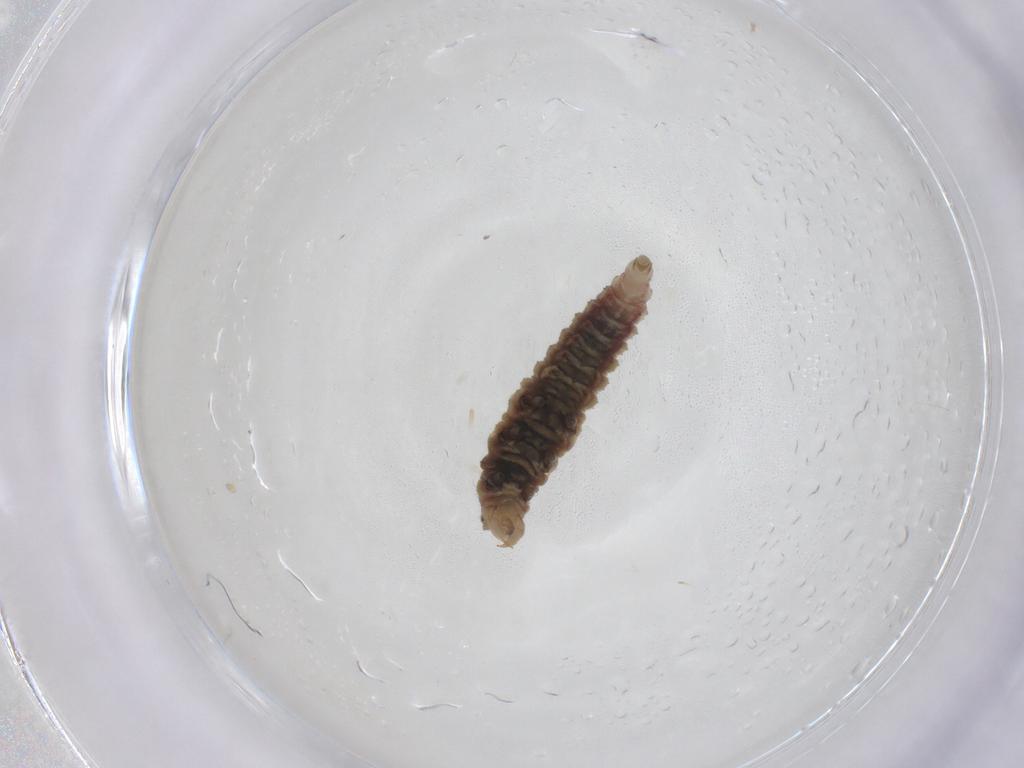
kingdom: Animalia
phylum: Arthropoda
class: Insecta
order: Neuroptera
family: Hemerobiidae
